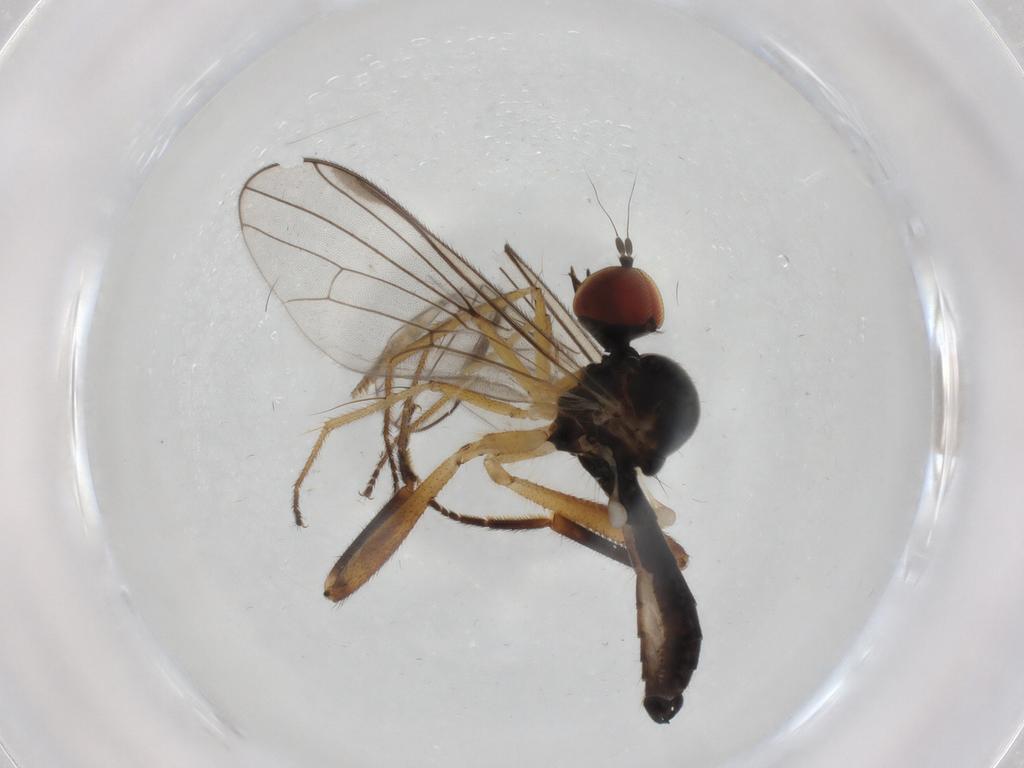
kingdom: Animalia
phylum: Arthropoda
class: Insecta
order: Diptera
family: Hybotidae
